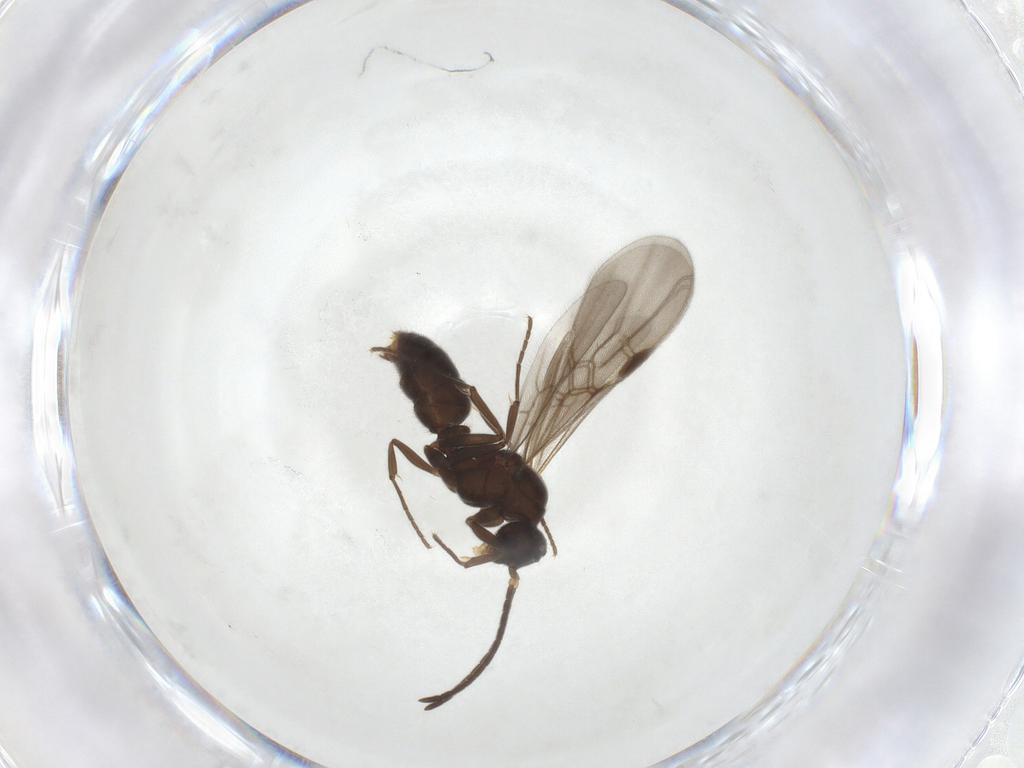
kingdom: Animalia
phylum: Arthropoda
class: Insecta
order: Hymenoptera
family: Formicidae
